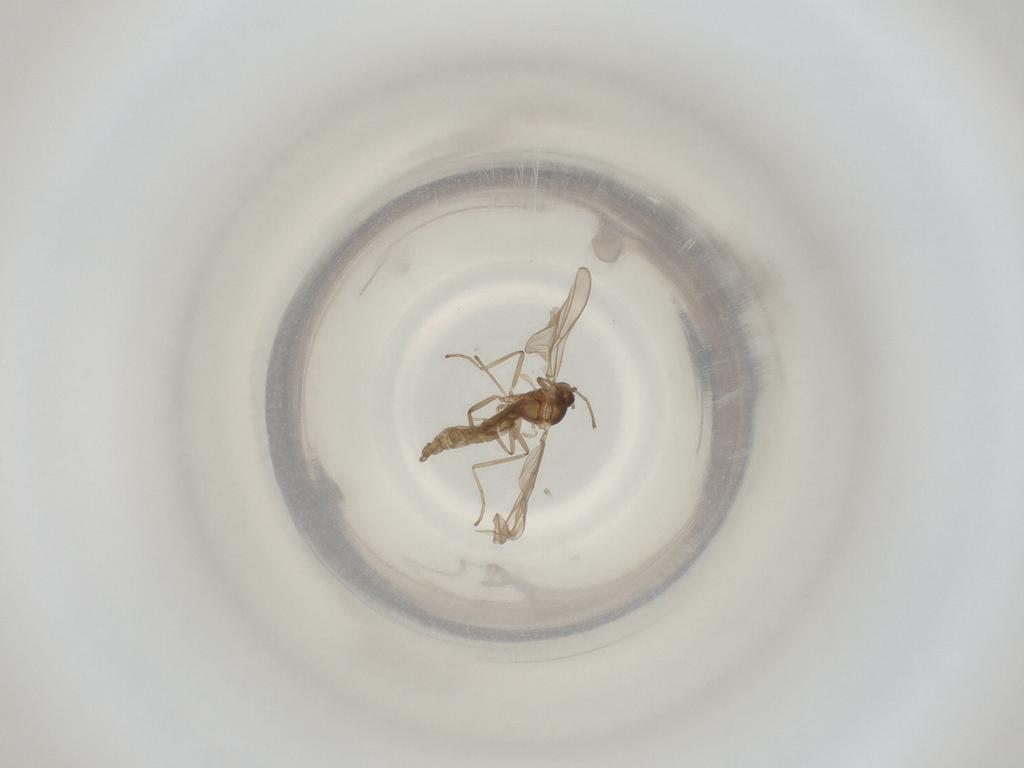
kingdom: Animalia
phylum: Arthropoda
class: Insecta
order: Diptera
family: Cecidomyiidae
